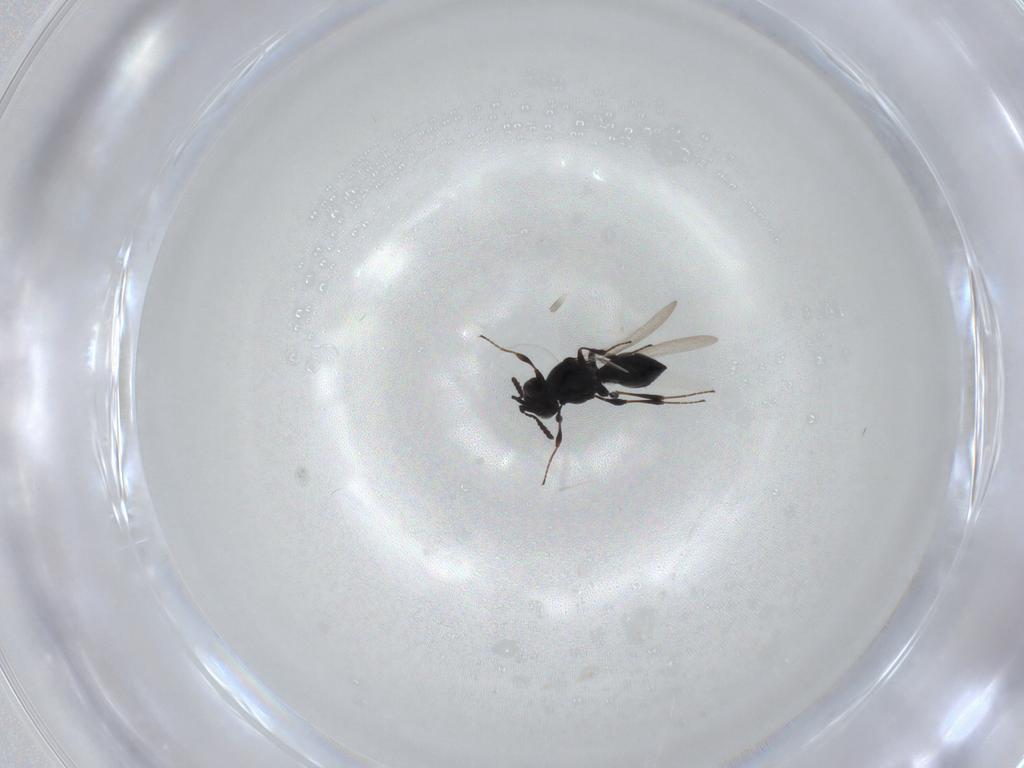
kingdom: Animalia
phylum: Arthropoda
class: Insecta
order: Hymenoptera
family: Platygastridae
